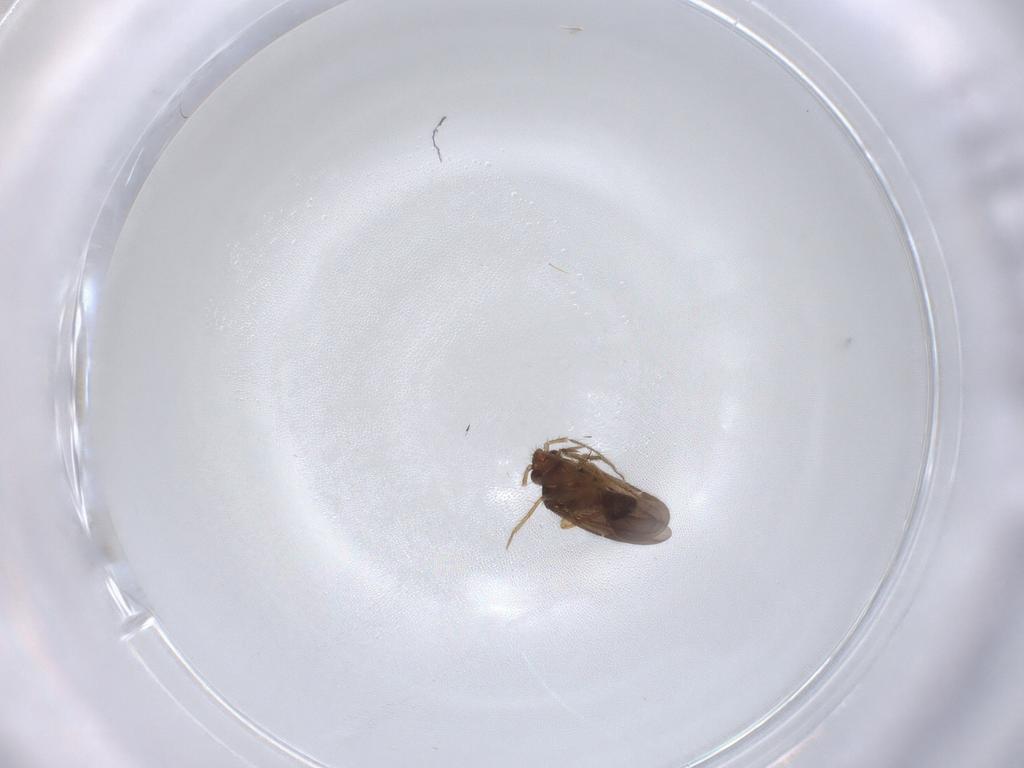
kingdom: Animalia
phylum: Arthropoda
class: Insecta
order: Hemiptera
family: Ceratocombidae
